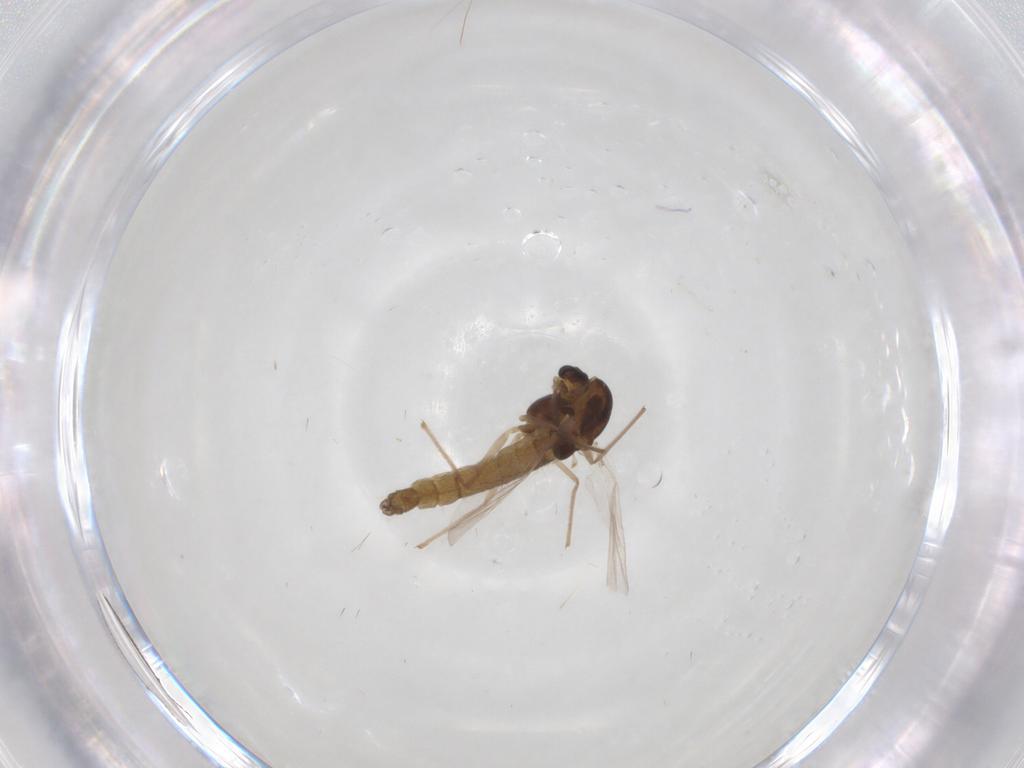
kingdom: Animalia
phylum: Arthropoda
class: Insecta
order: Diptera
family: Chironomidae
